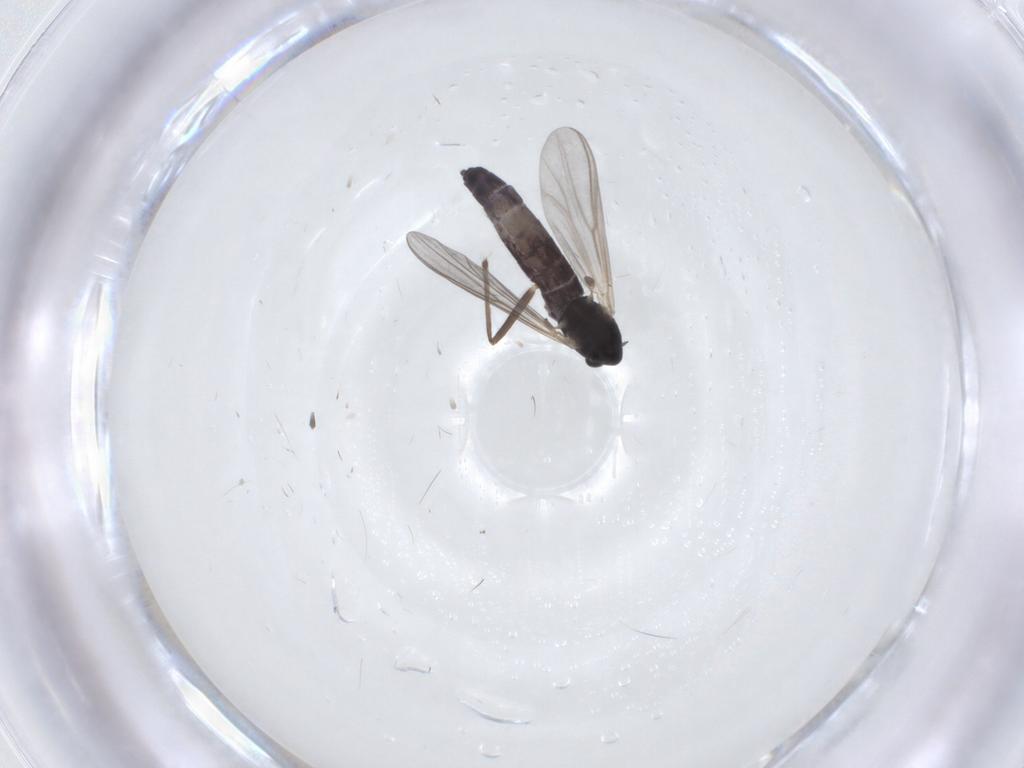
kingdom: Animalia
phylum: Arthropoda
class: Insecta
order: Diptera
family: Chironomidae
